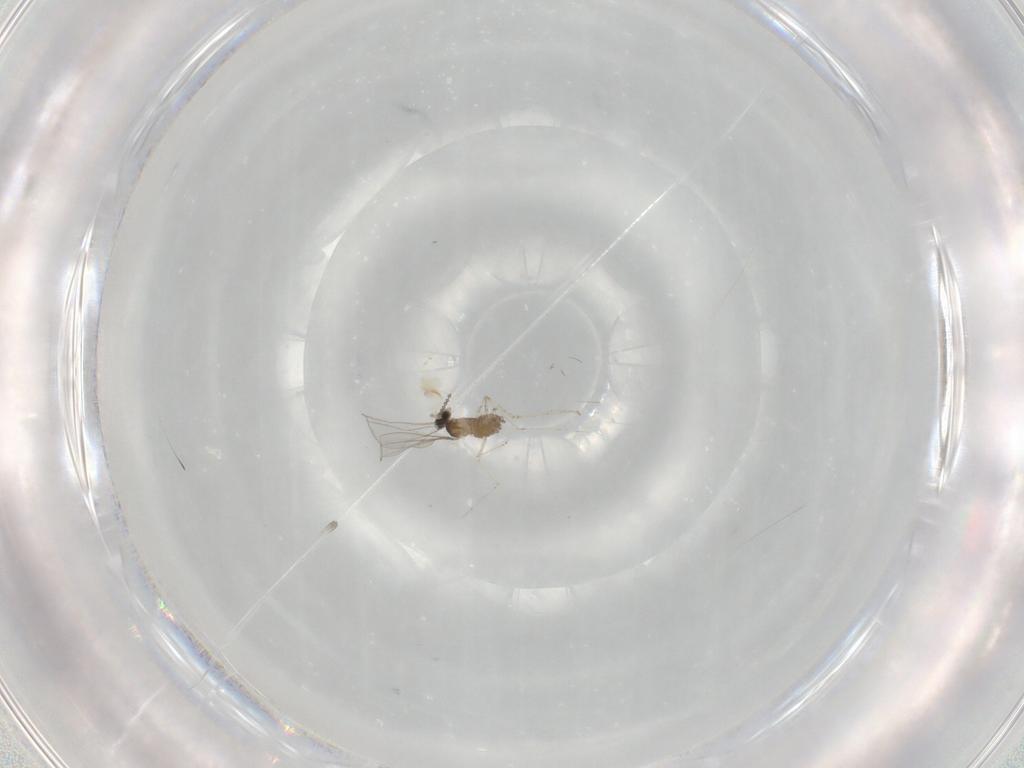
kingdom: Animalia
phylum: Arthropoda
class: Insecta
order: Diptera
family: Cecidomyiidae
